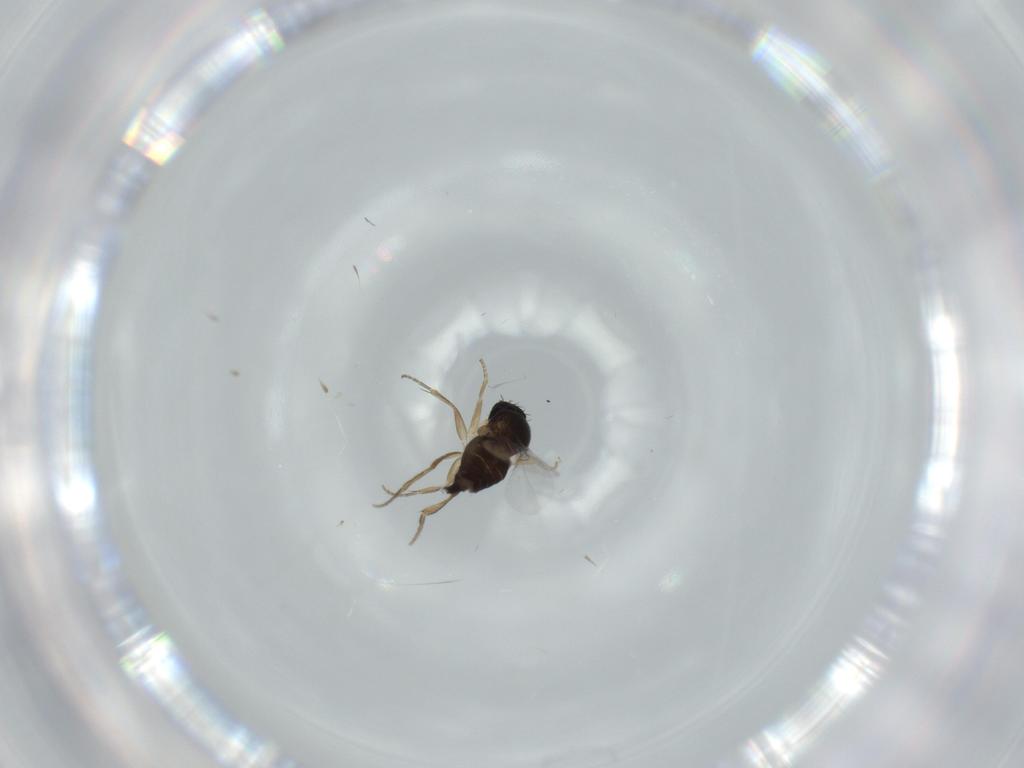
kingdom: Animalia
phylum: Arthropoda
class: Insecta
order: Diptera
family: Phoridae
